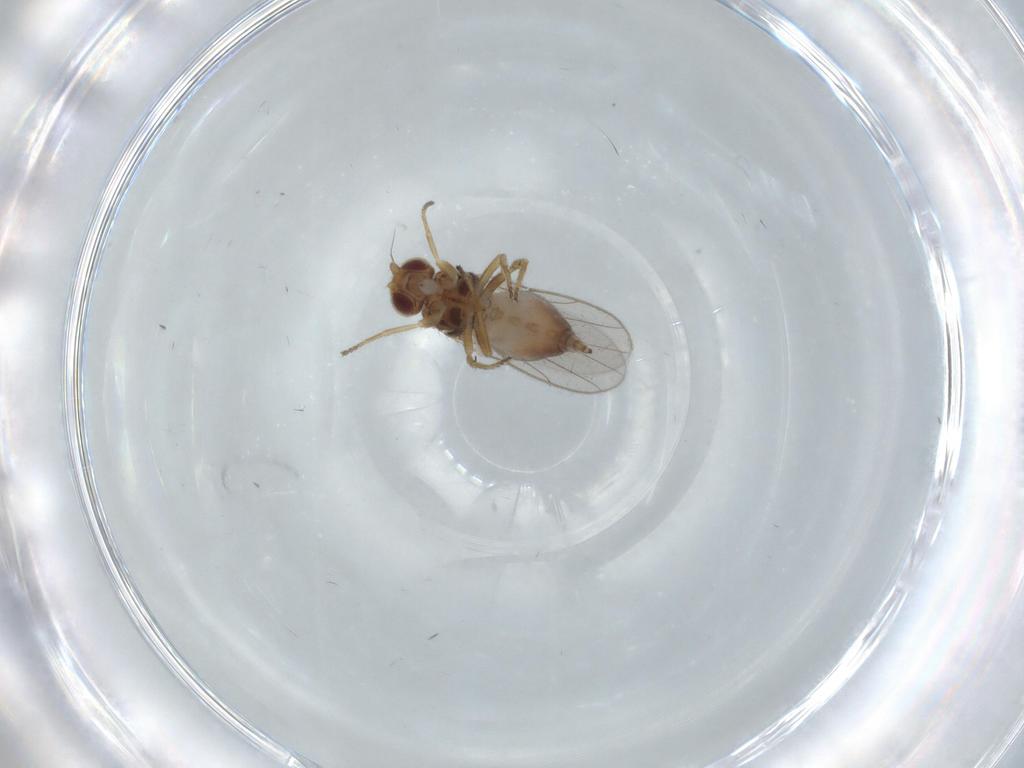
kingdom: Animalia
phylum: Arthropoda
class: Insecta
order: Diptera
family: Chloropidae
